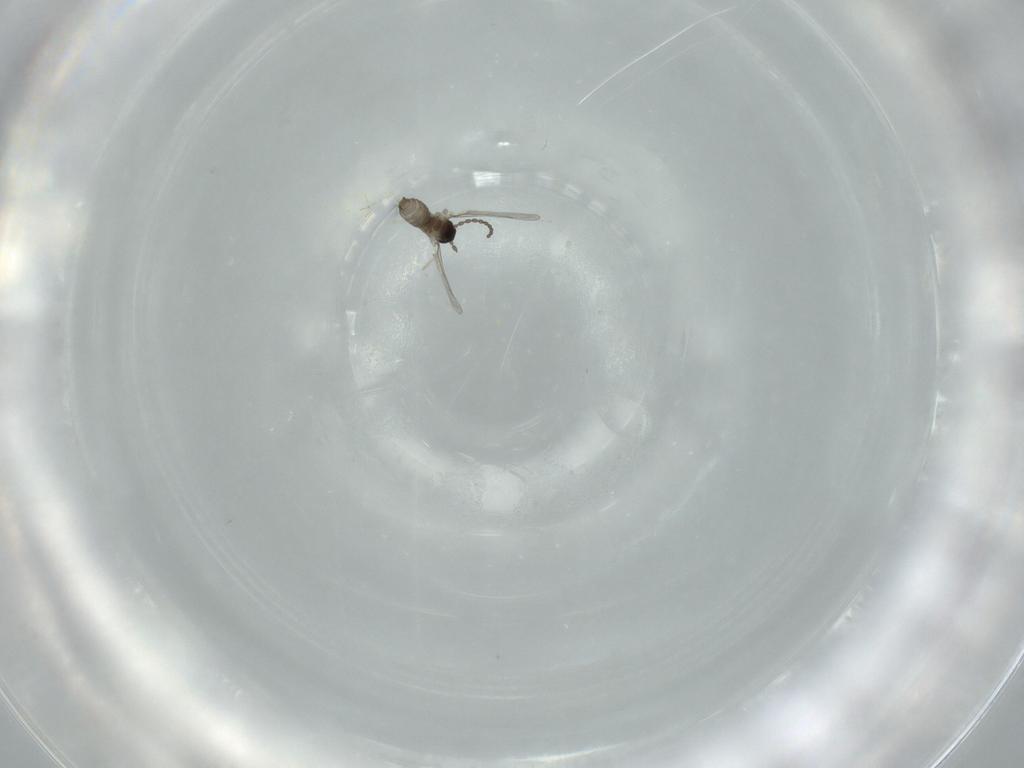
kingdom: Animalia
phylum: Arthropoda
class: Insecta
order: Diptera
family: Cecidomyiidae
